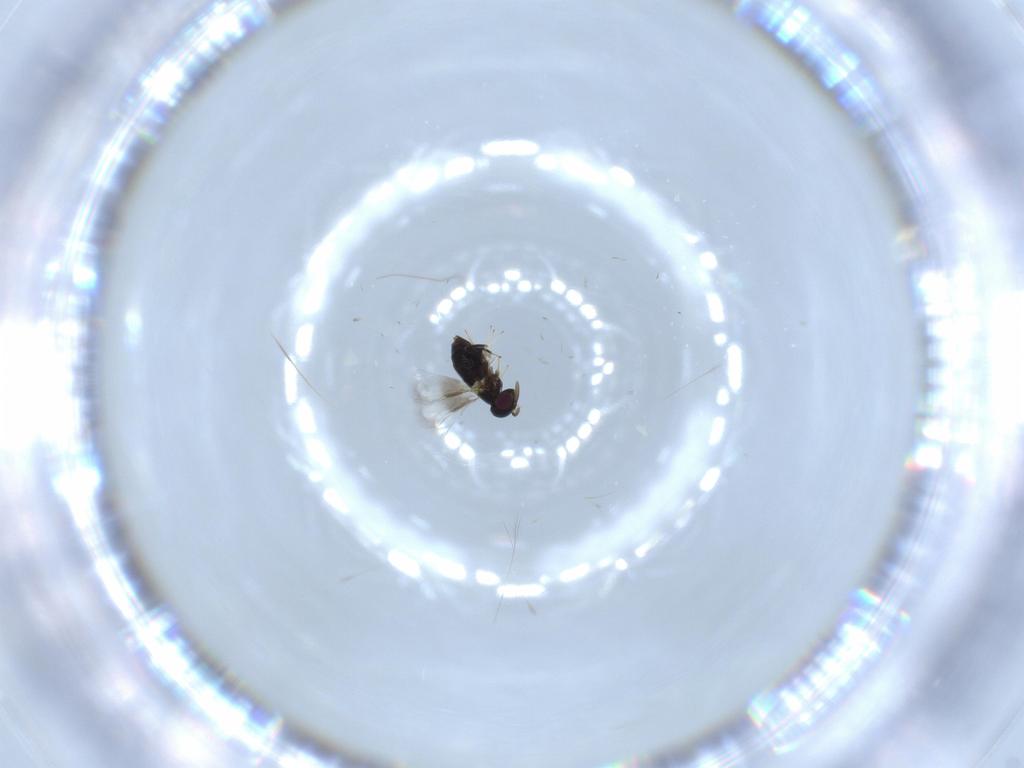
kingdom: Animalia
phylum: Arthropoda
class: Insecta
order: Hymenoptera
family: Signiphoridae
